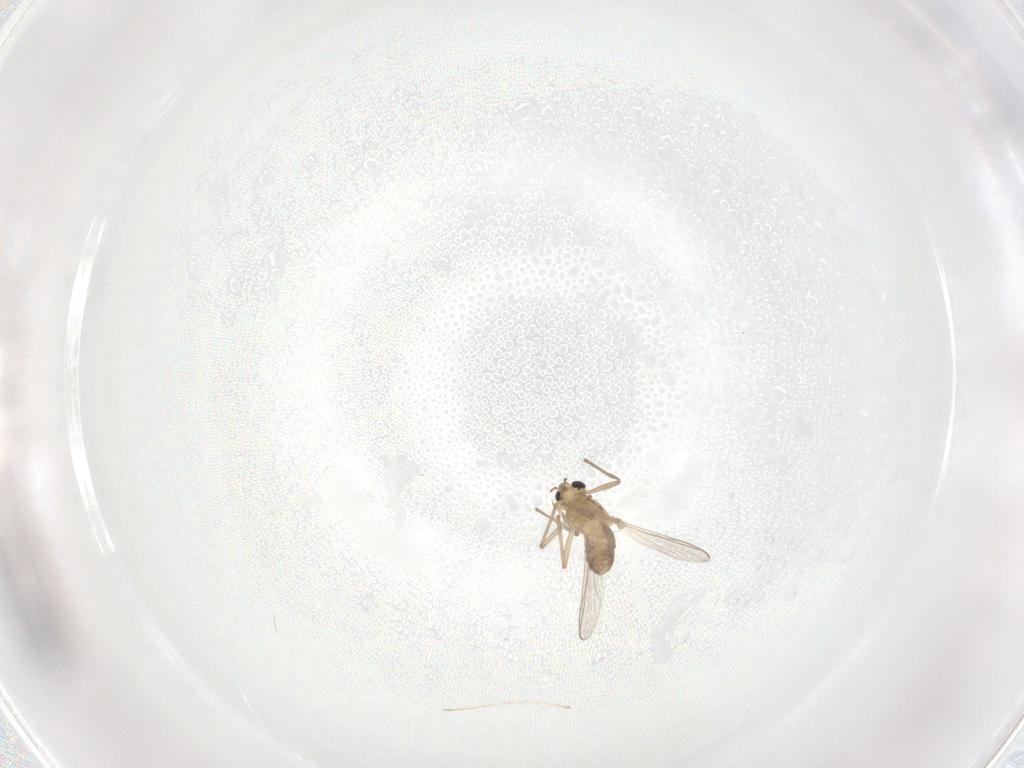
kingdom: Animalia
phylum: Arthropoda
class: Insecta
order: Diptera
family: Chironomidae
